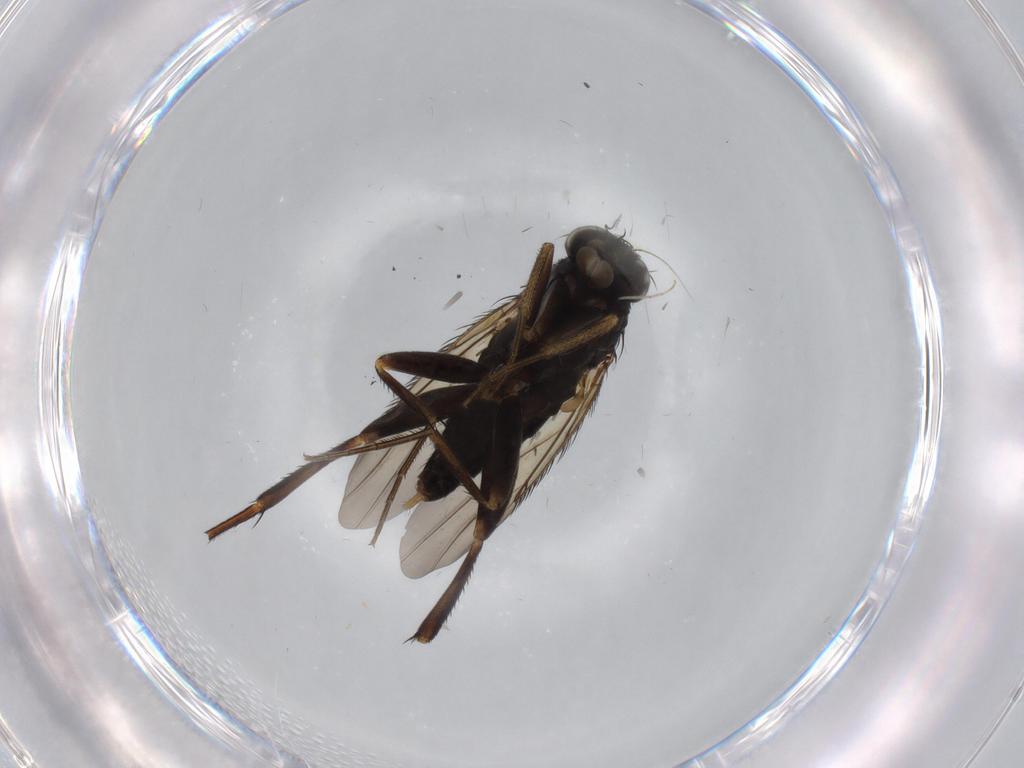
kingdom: Animalia
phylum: Arthropoda
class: Insecta
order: Diptera
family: Phoridae
